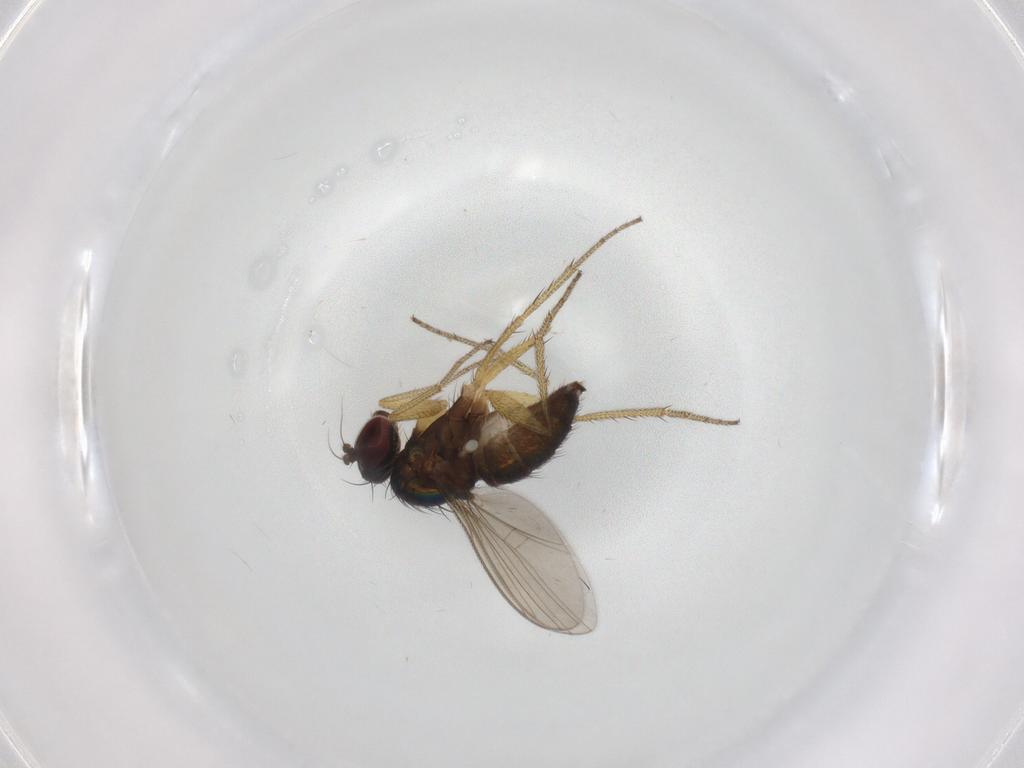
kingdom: Animalia
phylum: Arthropoda
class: Insecta
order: Diptera
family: Dolichopodidae
